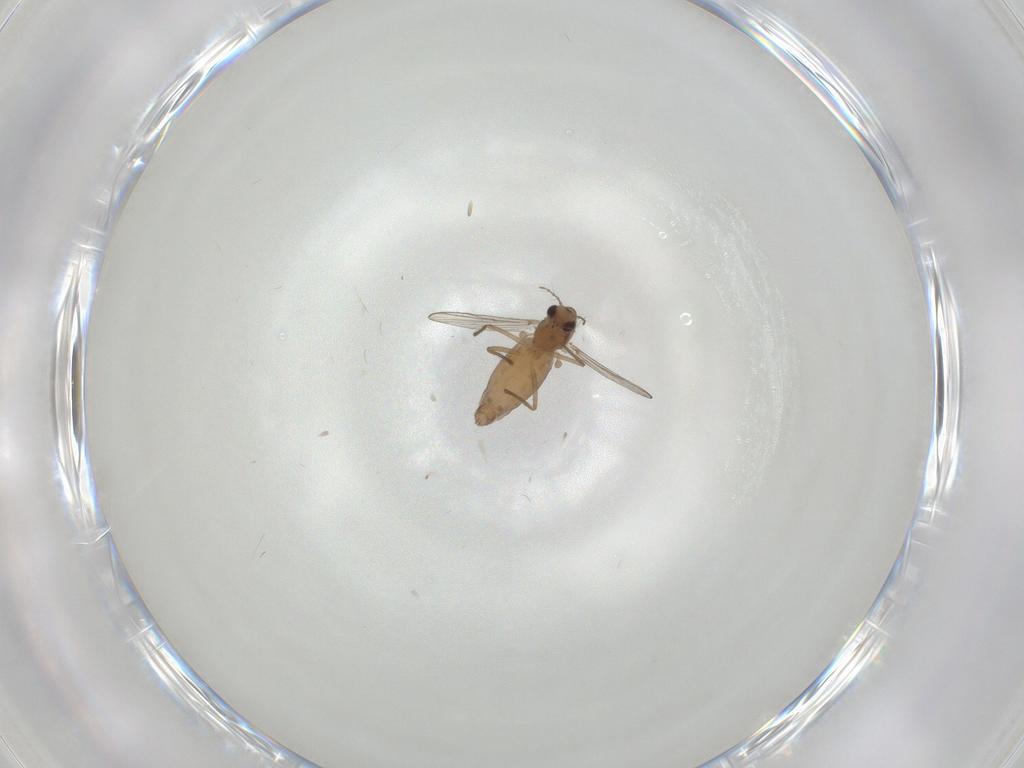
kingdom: Animalia
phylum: Arthropoda
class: Insecta
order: Diptera
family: Chironomidae
